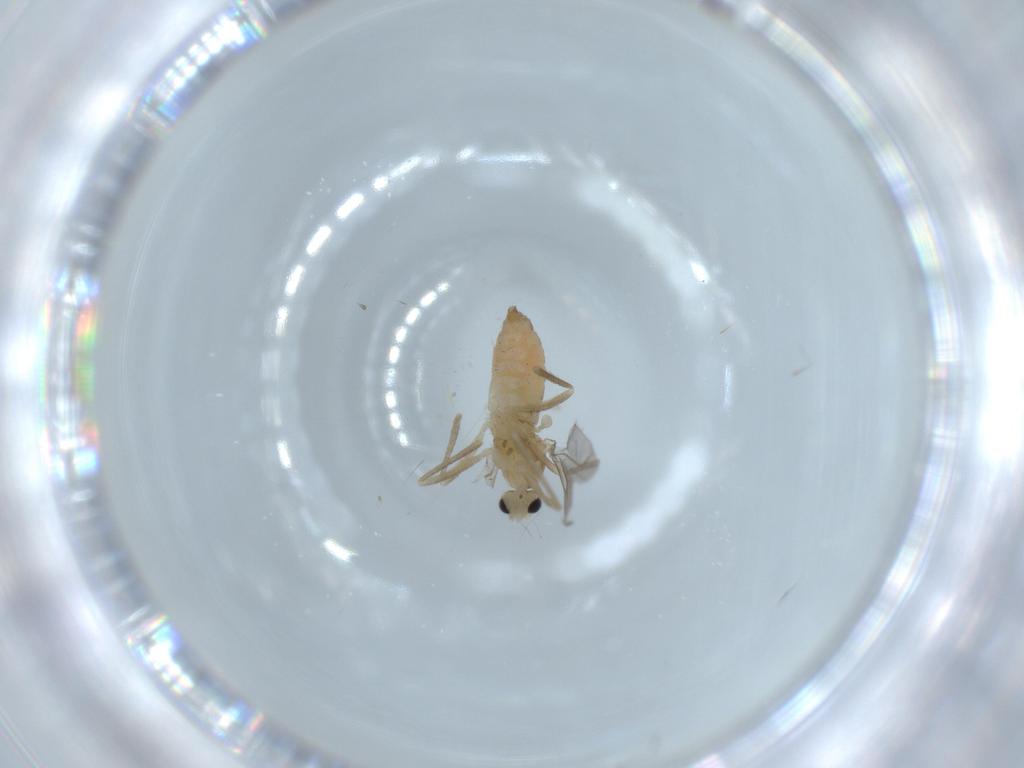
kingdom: Animalia
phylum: Arthropoda
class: Insecta
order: Diptera
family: Cecidomyiidae
